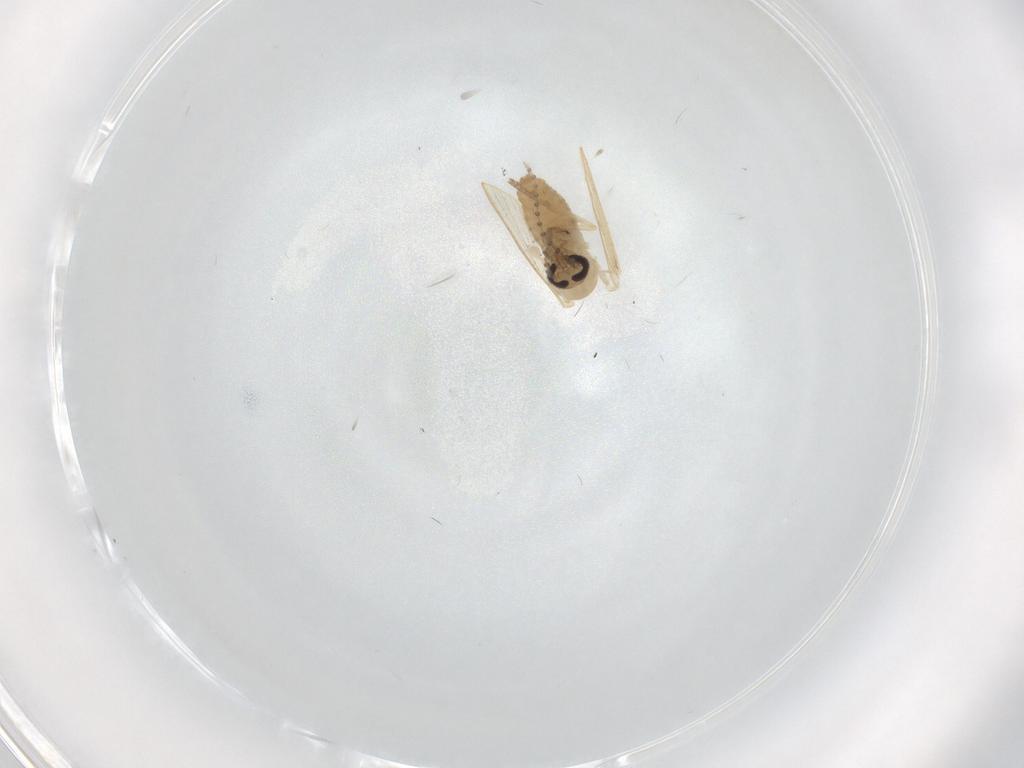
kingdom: Animalia
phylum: Arthropoda
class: Insecta
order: Diptera
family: Psychodidae
